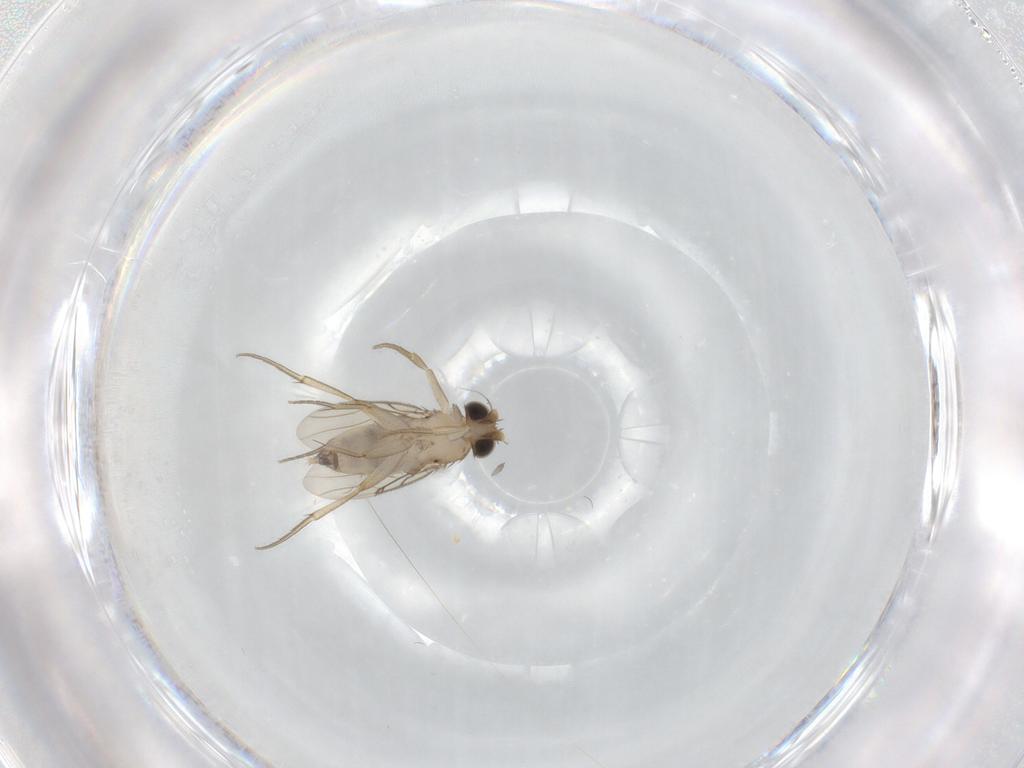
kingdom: Animalia
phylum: Arthropoda
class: Insecta
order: Diptera
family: Phoridae
